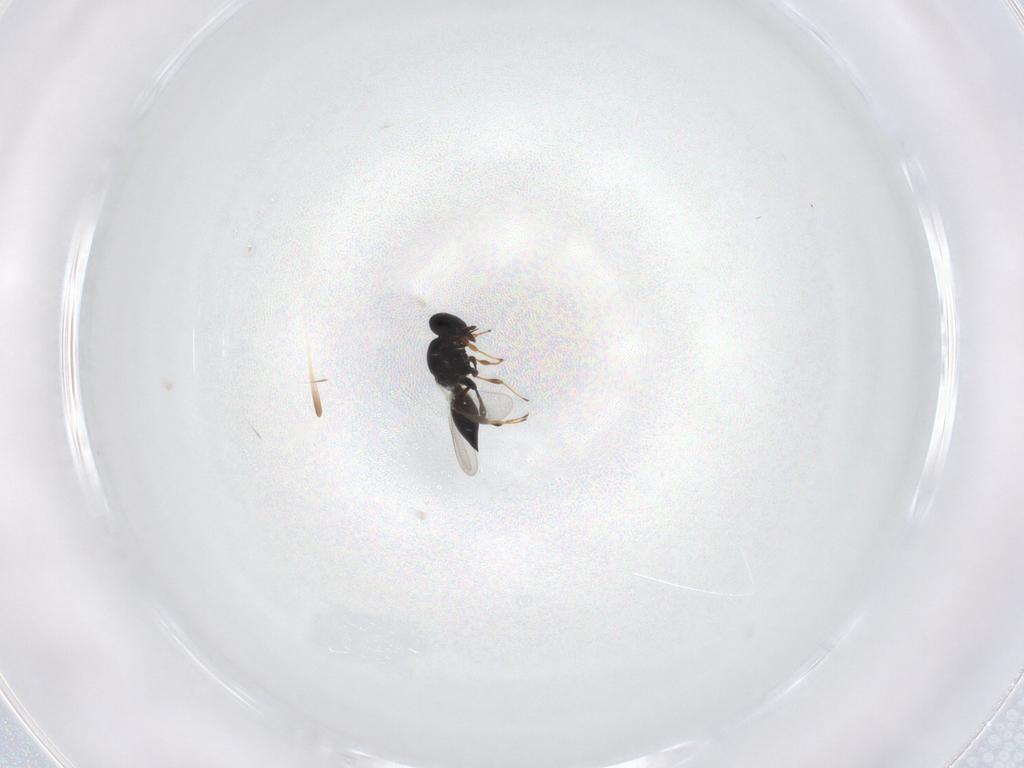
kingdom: Animalia
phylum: Arthropoda
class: Insecta
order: Hymenoptera
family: Platygastridae
